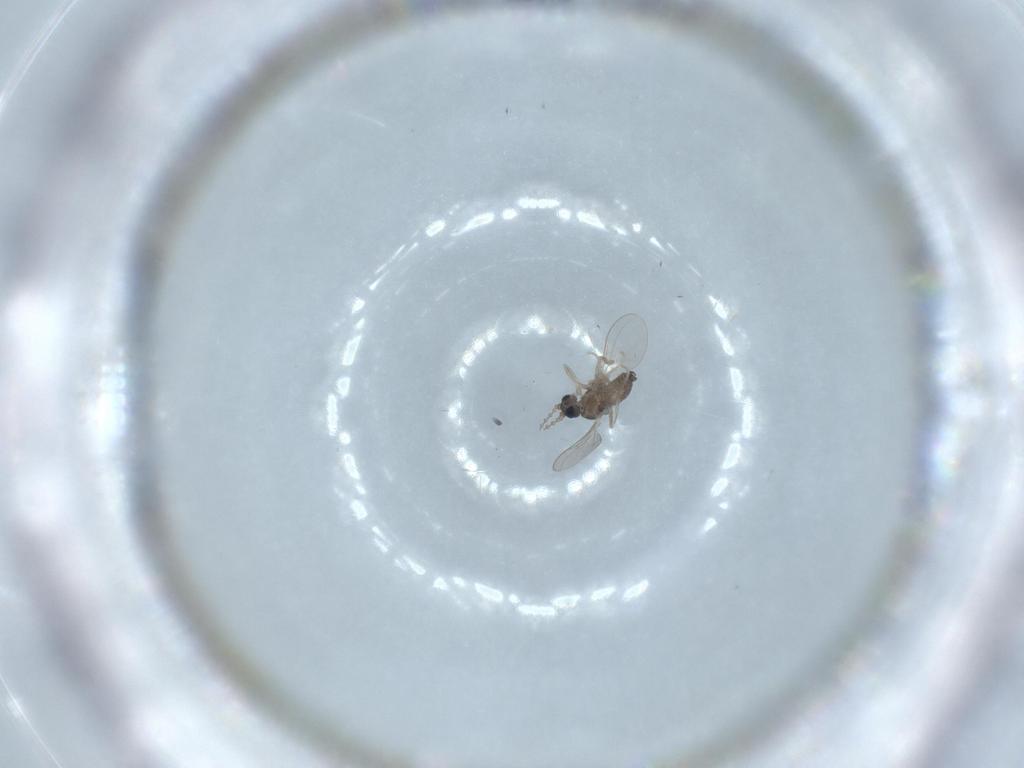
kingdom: Animalia
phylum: Arthropoda
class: Insecta
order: Diptera
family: Cecidomyiidae
